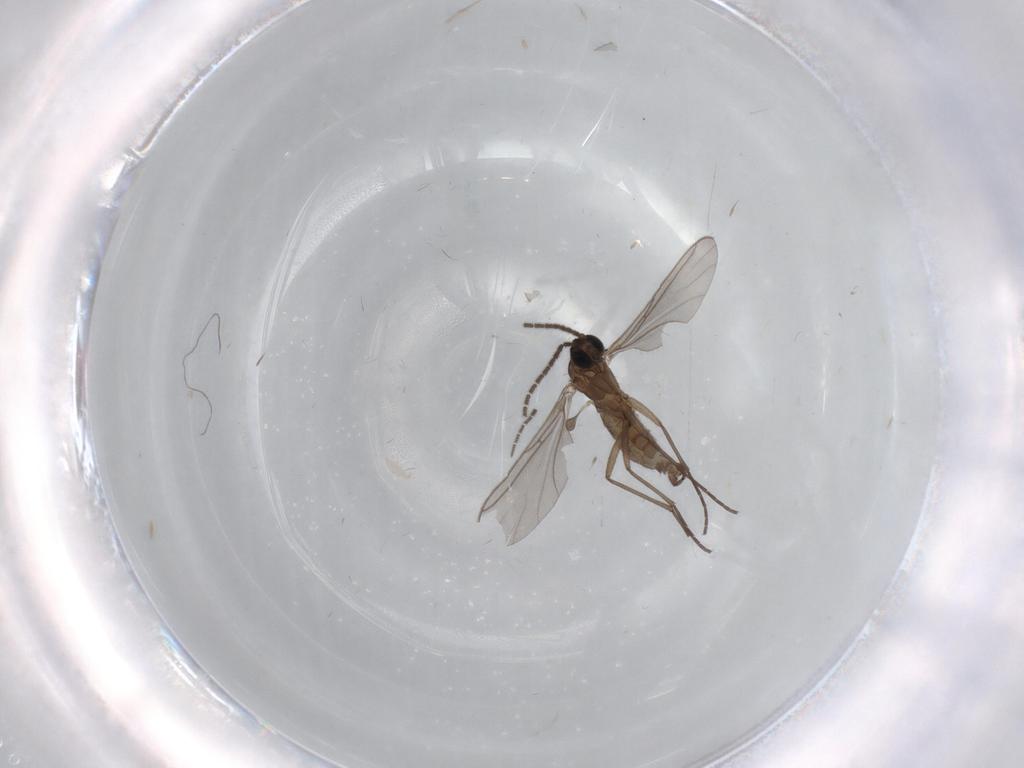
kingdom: Animalia
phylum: Arthropoda
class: Insecta
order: Diptera
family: Sciaridae
